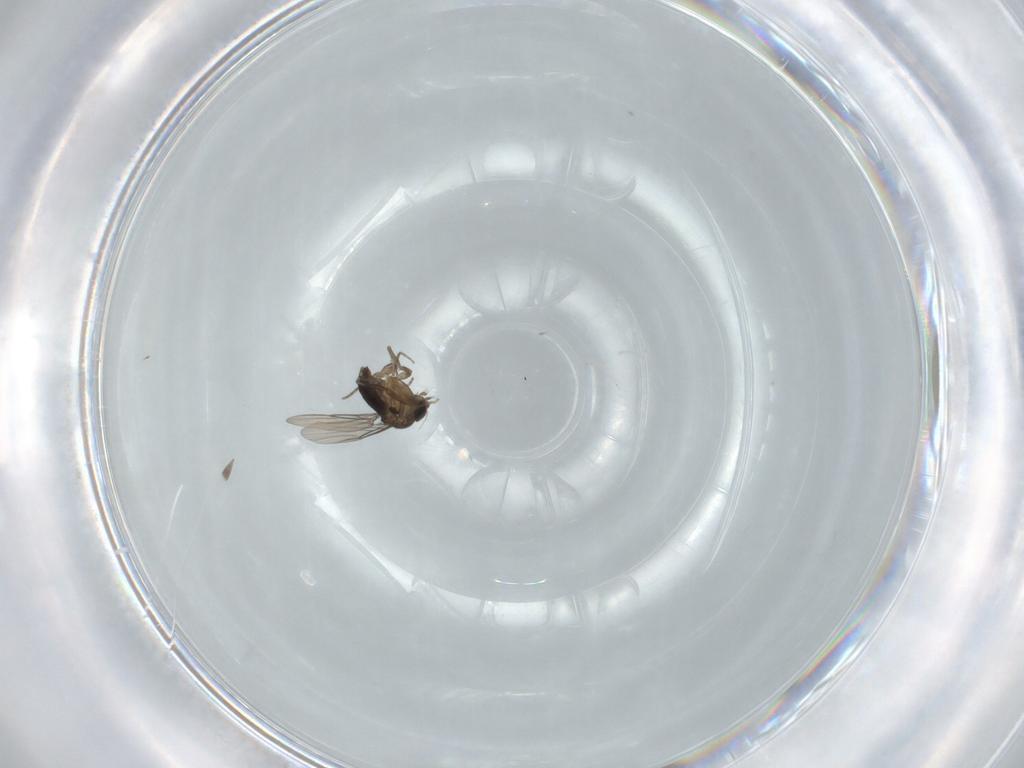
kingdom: Animalia
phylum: Arthropoda
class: Insecta
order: Diptera
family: Cecidomyiidae
